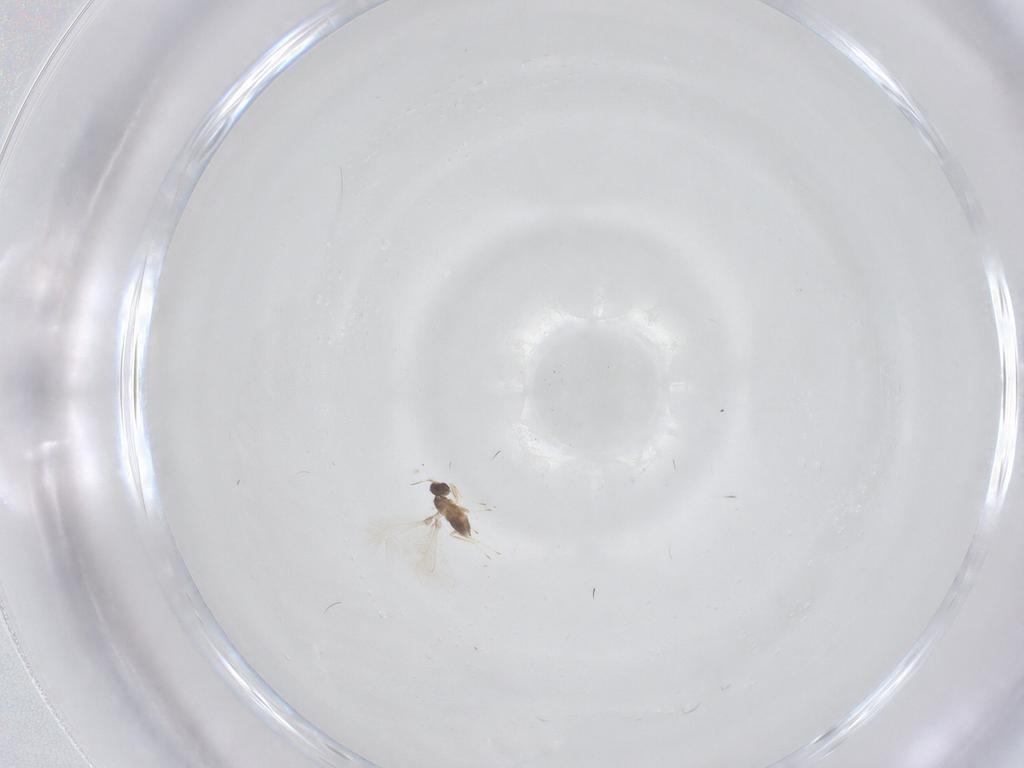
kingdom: Animalia
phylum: Arthropoda
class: Insecta
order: Hymenoptera
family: Mymaridae
